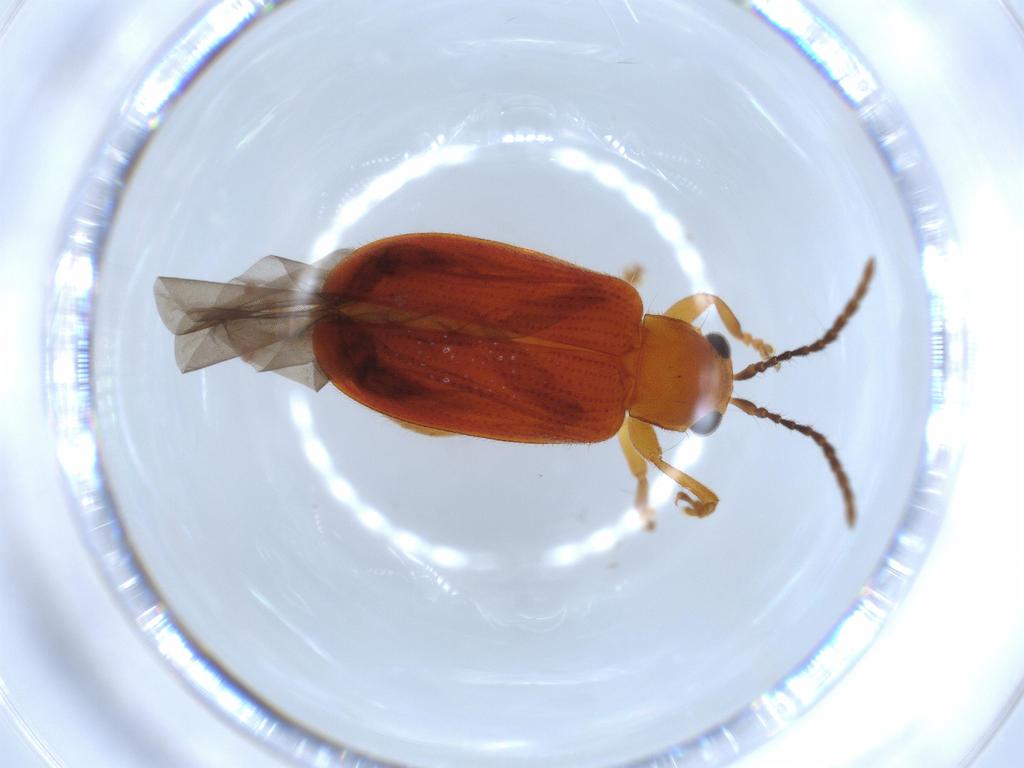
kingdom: Animalia
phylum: Arthropoda
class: Insecta
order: Coleoptera
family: Chrysomelidae
